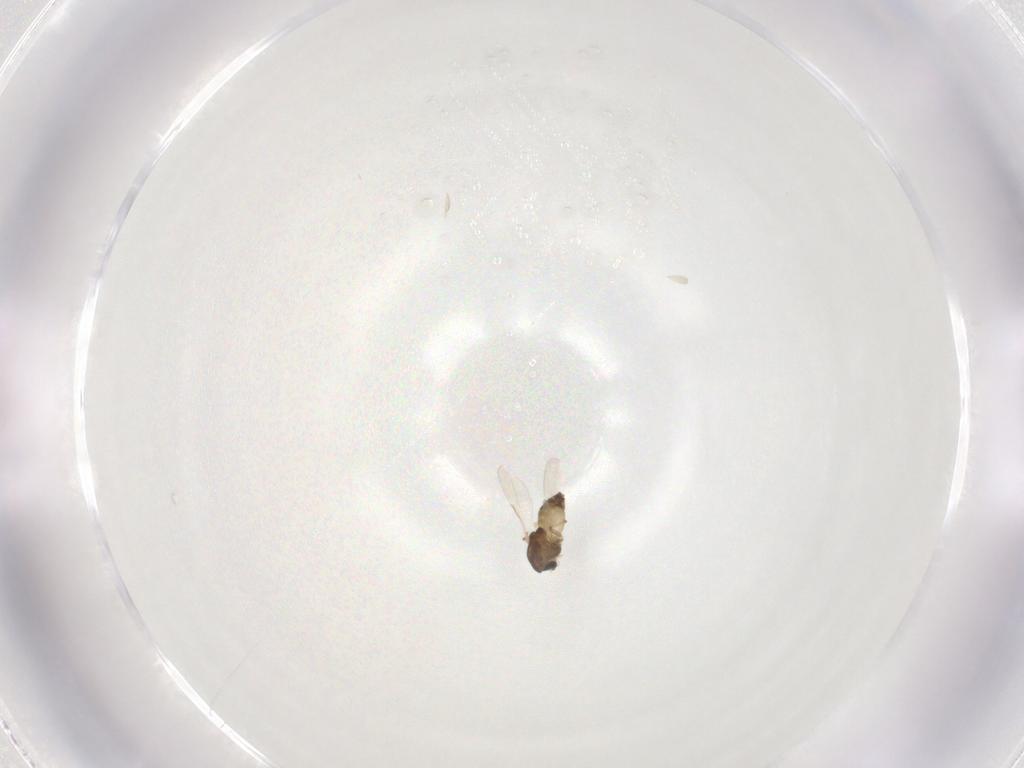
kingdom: Animalia
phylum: Arthropoda
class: Insecta
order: Diptera
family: Chironomidae
